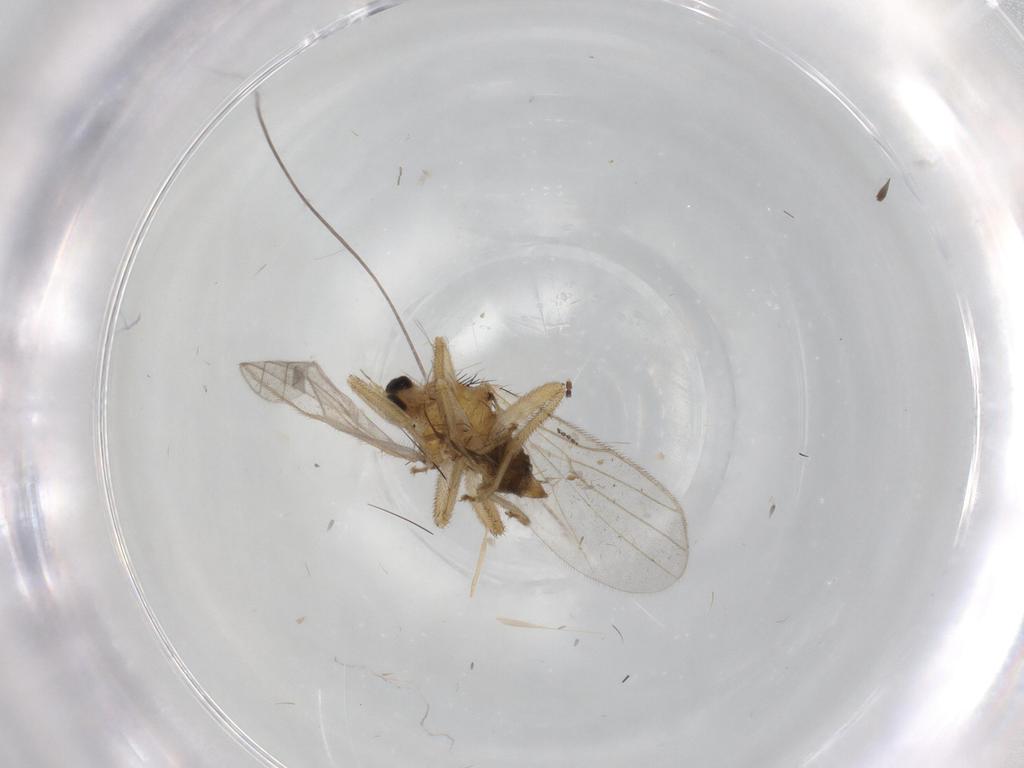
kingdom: Animalia
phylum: Arthropoda
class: Insecta
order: Diptera
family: Hybotidae
